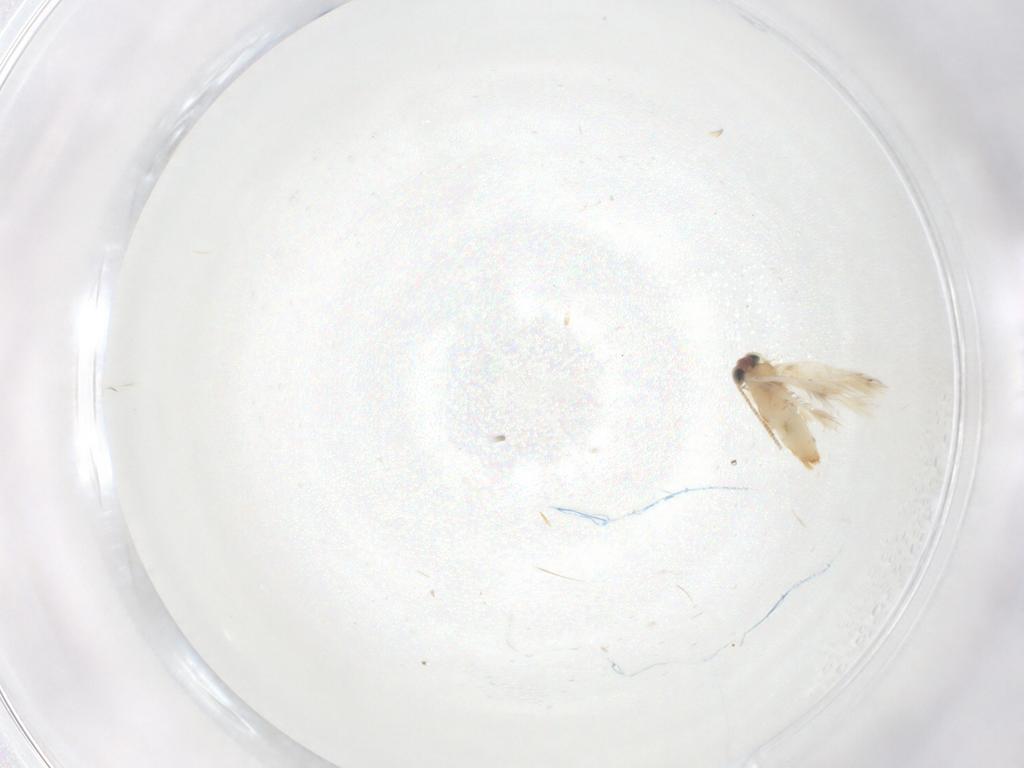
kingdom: Animalia
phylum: Arthropoda
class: Insecta
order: Lepidoptera
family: Crambidae
